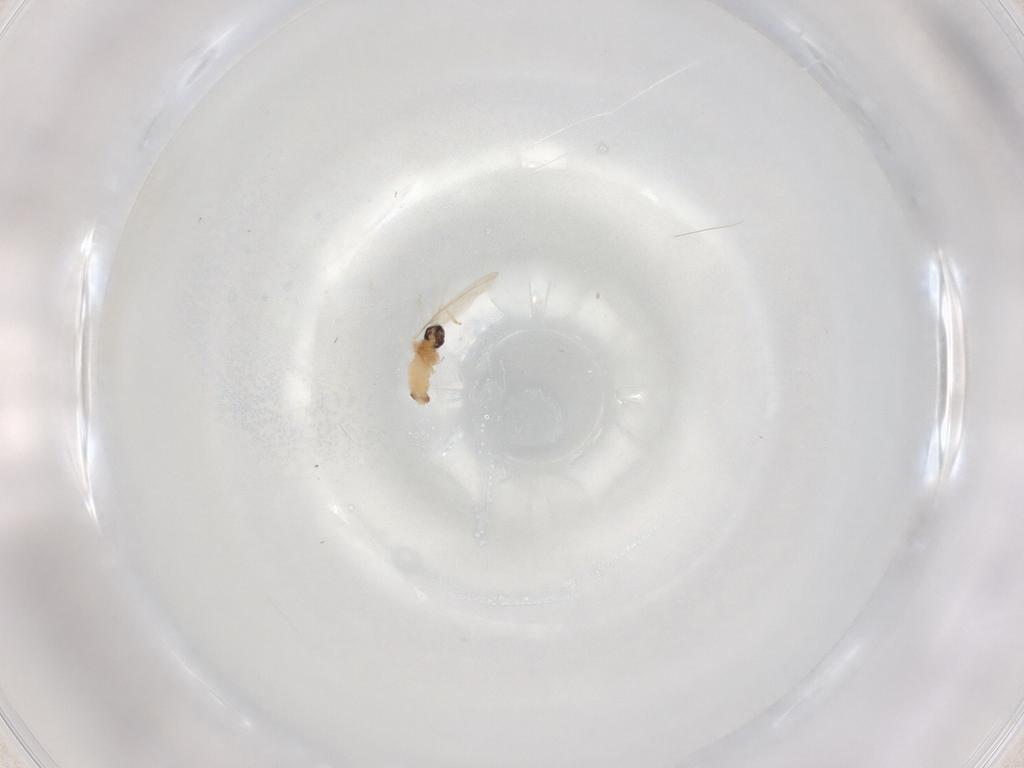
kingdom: Animalia
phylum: Arthropoda
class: Insecta
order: Diptera
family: Cecidomyiidae
